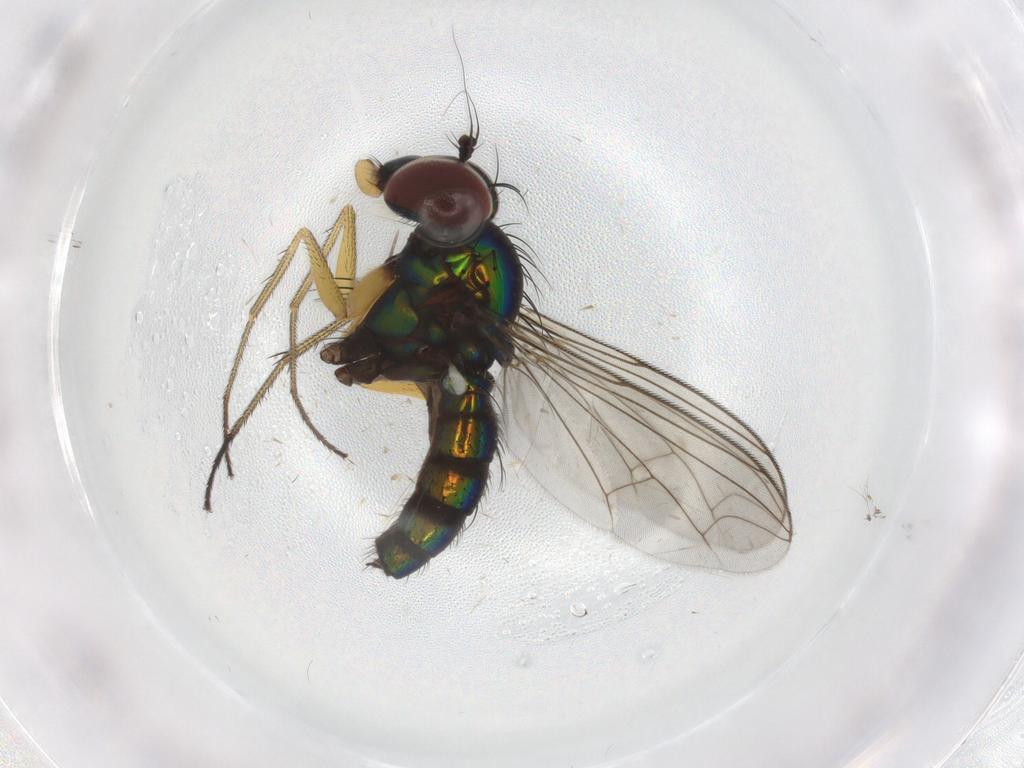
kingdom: Animalia
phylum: Arthropoda
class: Insecta
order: Diptera
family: Dolichopodidae
